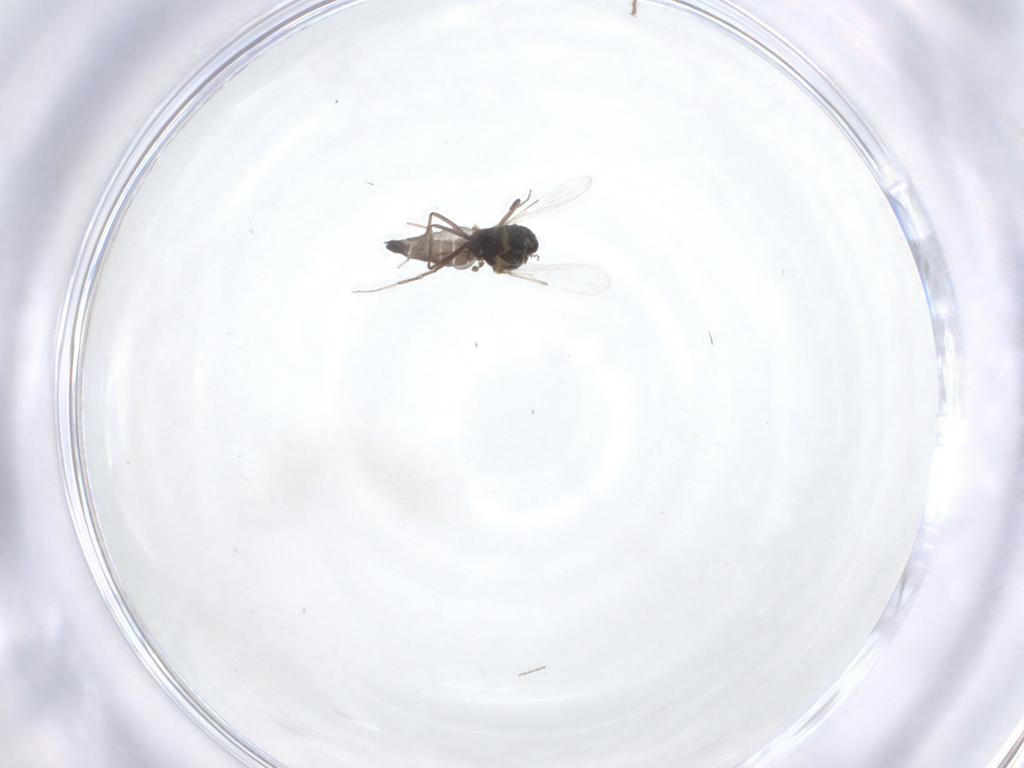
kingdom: Animalia
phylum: Arthropoda
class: Insecta
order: Diptera
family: Ceratopogonidae
